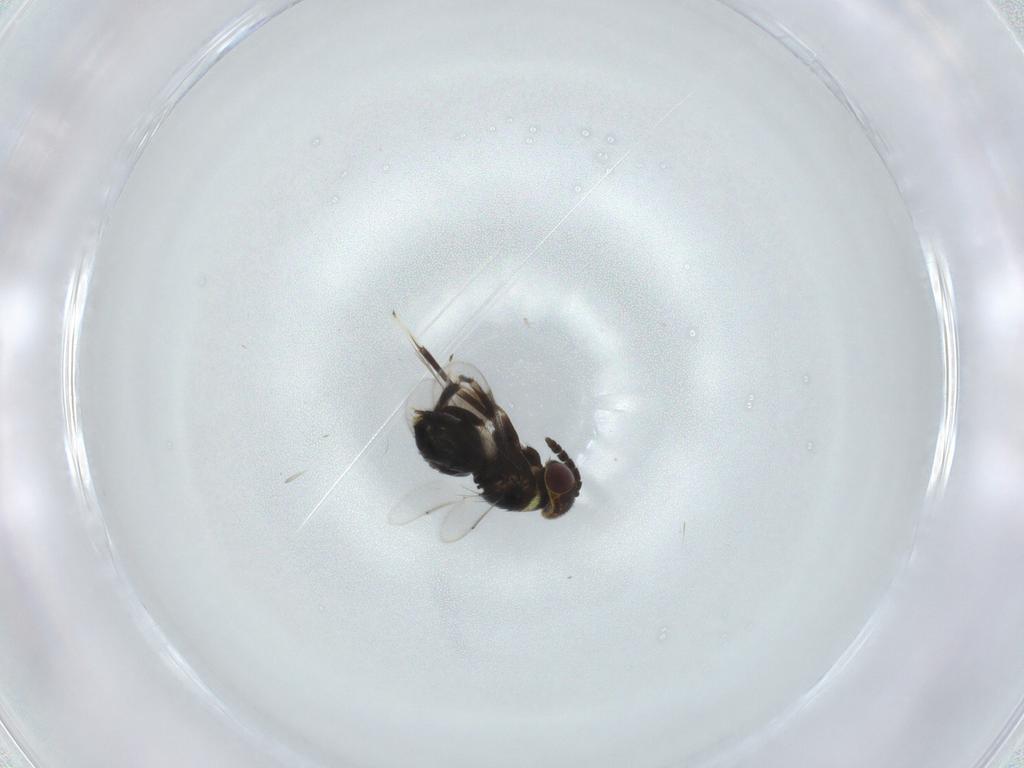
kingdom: Animalia
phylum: Arthropoda
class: Insecta
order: Hymenoptera
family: Aphelinidae
